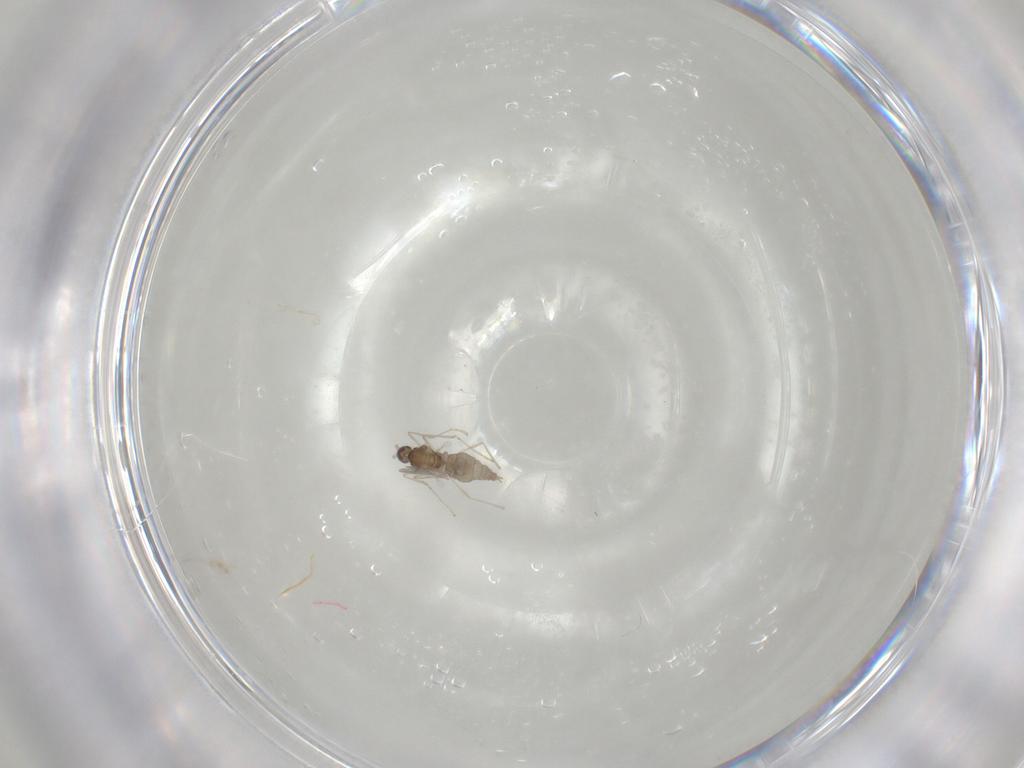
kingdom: Animalia
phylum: Arthropoda
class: Insecta
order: Diptera
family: Cecidomyiidae
